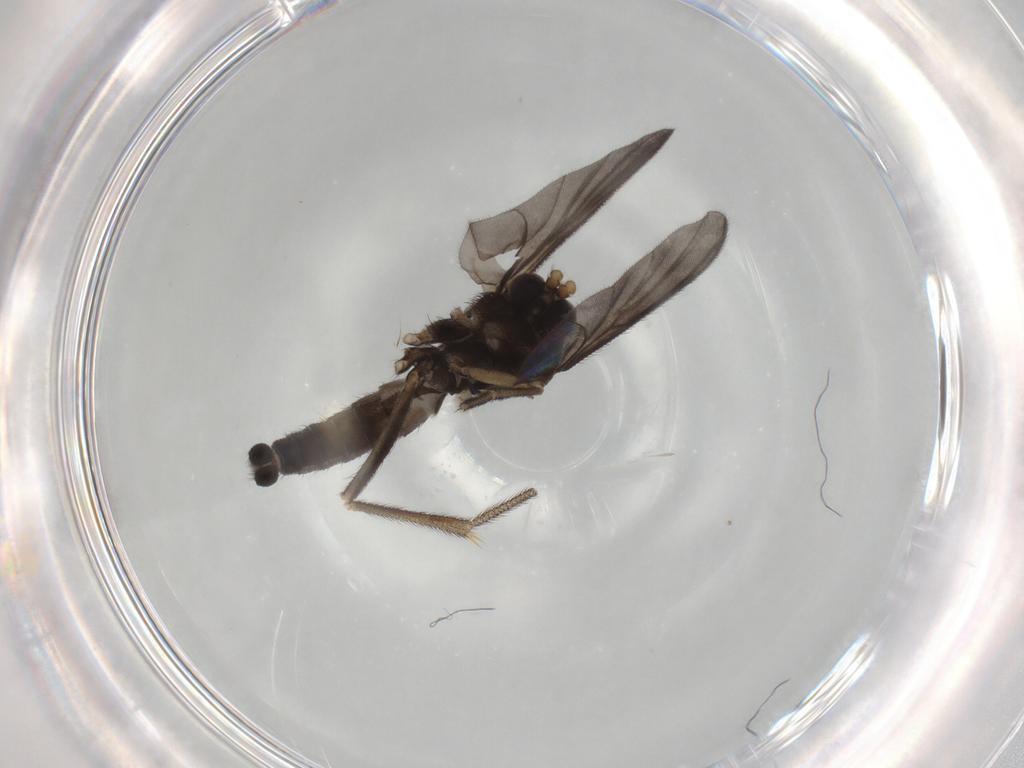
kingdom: Animalia
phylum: Arthropoda
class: Insecta
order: Diptera
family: Mycetophilidae
